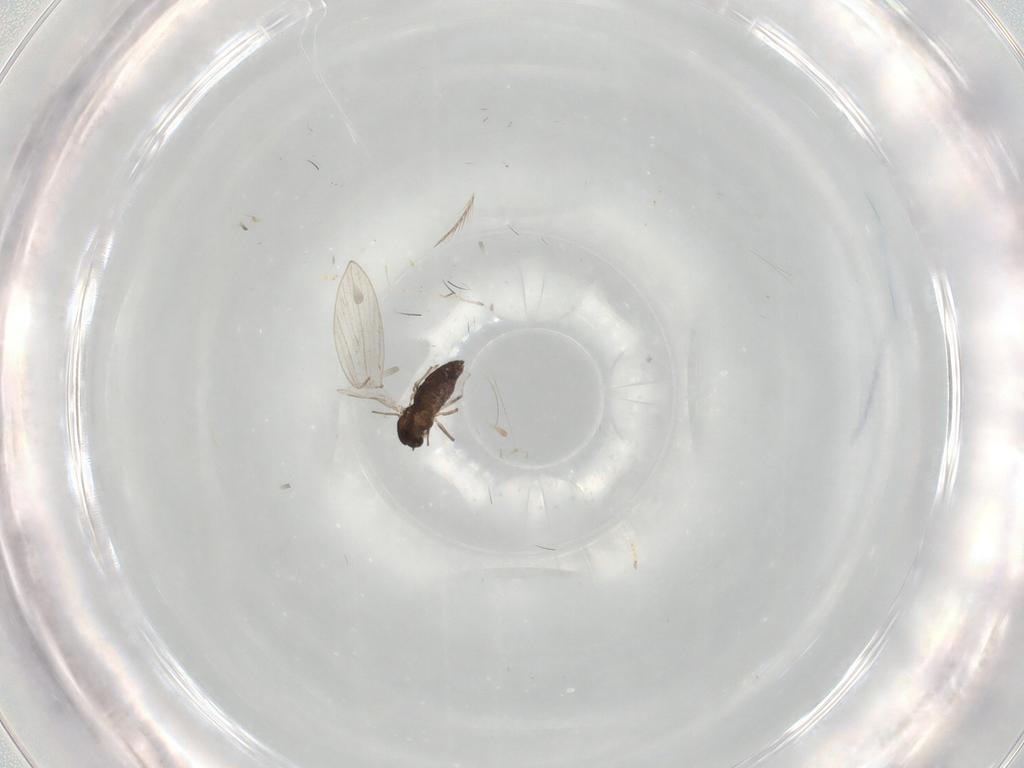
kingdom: Animalia
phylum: Arthropoda
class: Insecta
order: Diptera
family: Chironomidae
